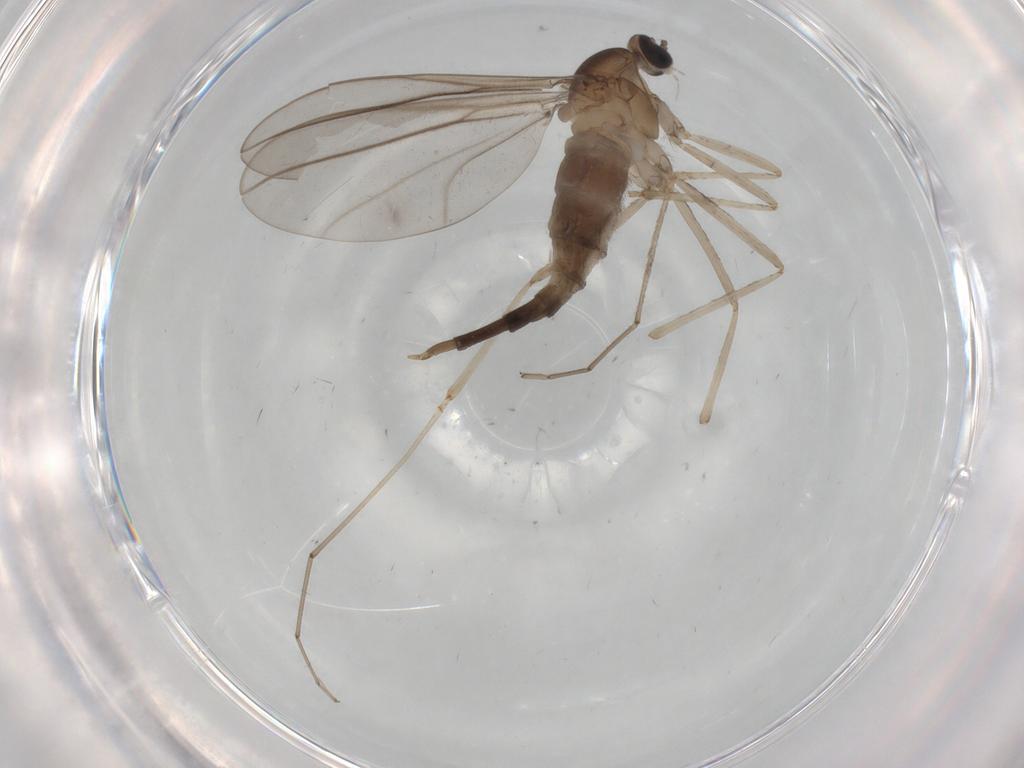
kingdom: Animalia
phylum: Arthropoda
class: Insecta
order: Diptera
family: Cecidomyiidae
